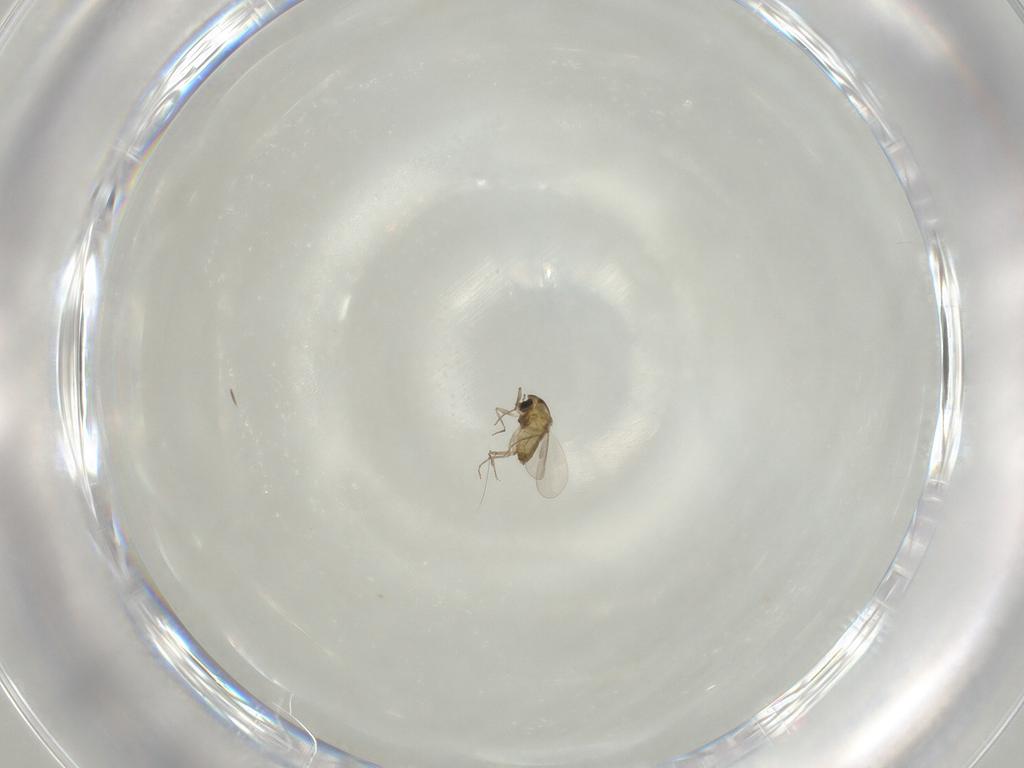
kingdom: Animalia
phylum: Arthropoda
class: Insecta
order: Diptera
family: Chironomidae
